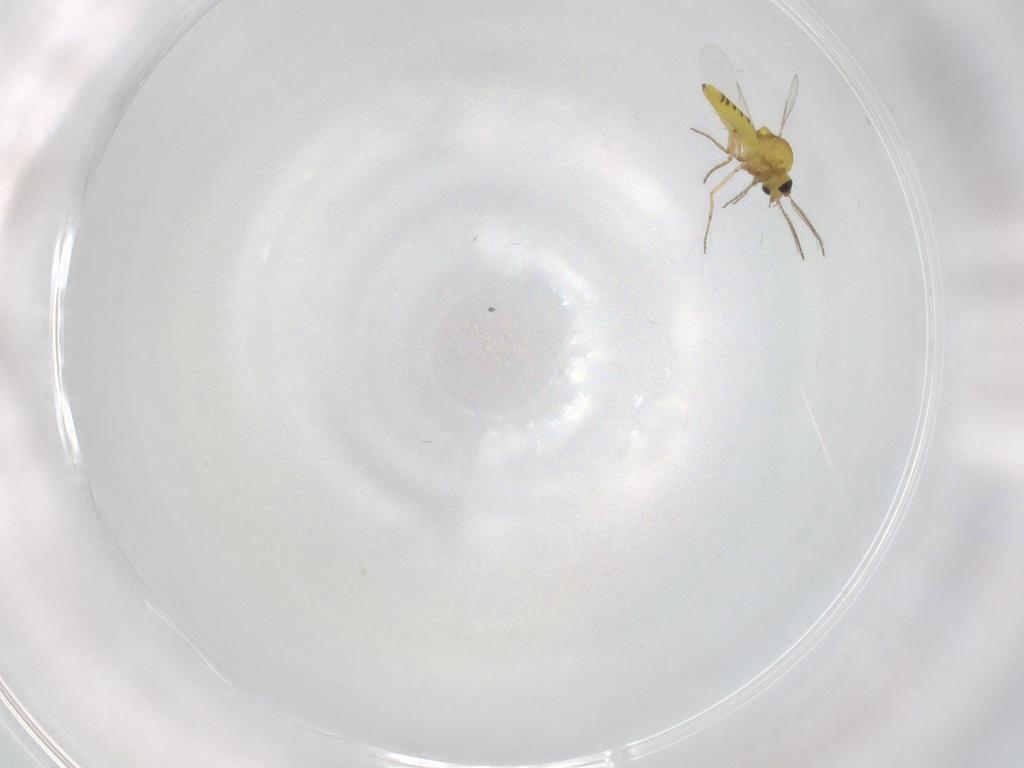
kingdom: Animalia
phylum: Arthropoda
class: Insecta
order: Diptera
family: Ceratopogonidae
